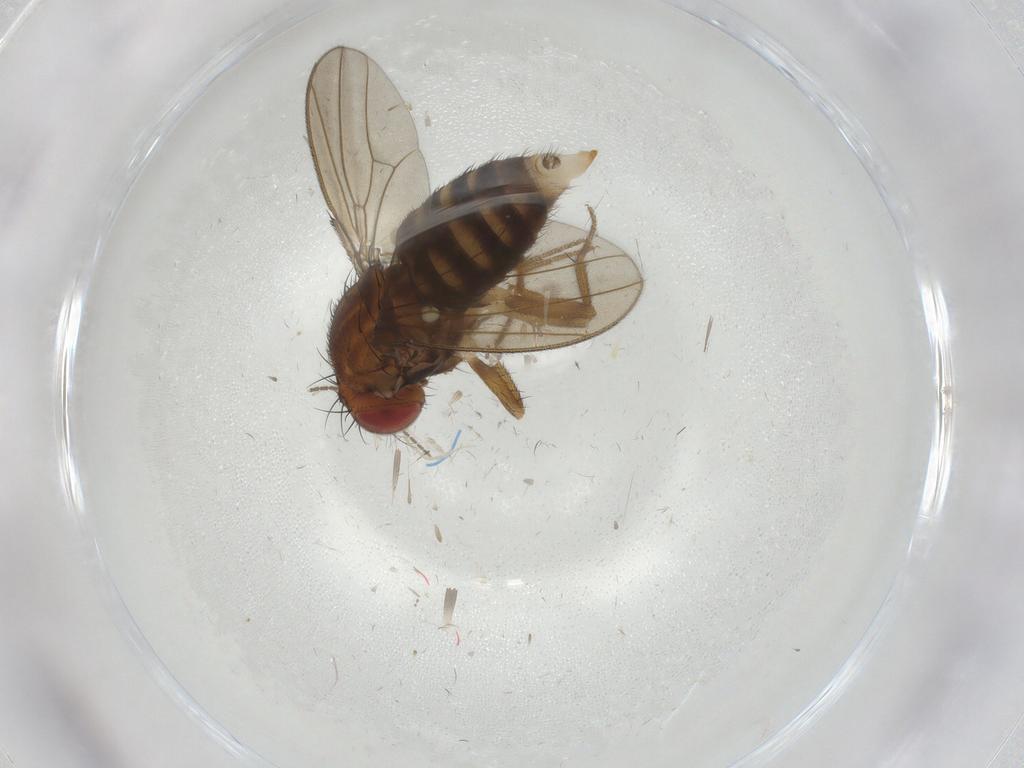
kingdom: Animalia
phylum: Arthropoda
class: Insecta
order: Diptera
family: Drosophilidae
